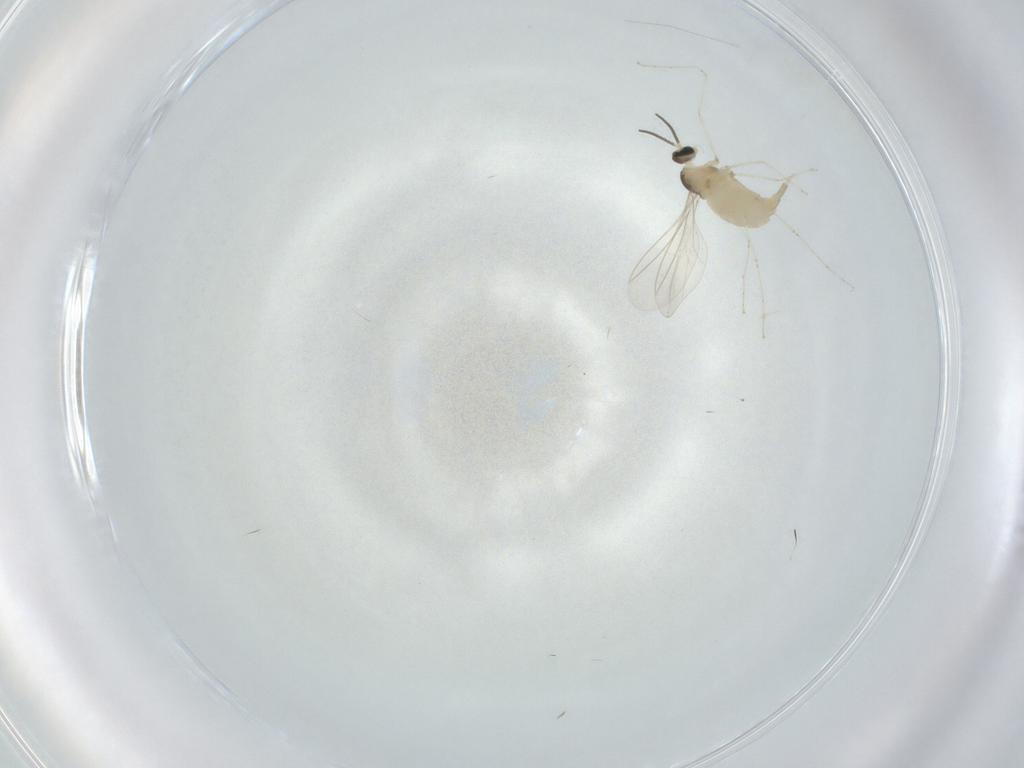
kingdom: Animalia
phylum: Arthropoda
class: Insecta
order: Diptera
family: Cecidomyiidae
